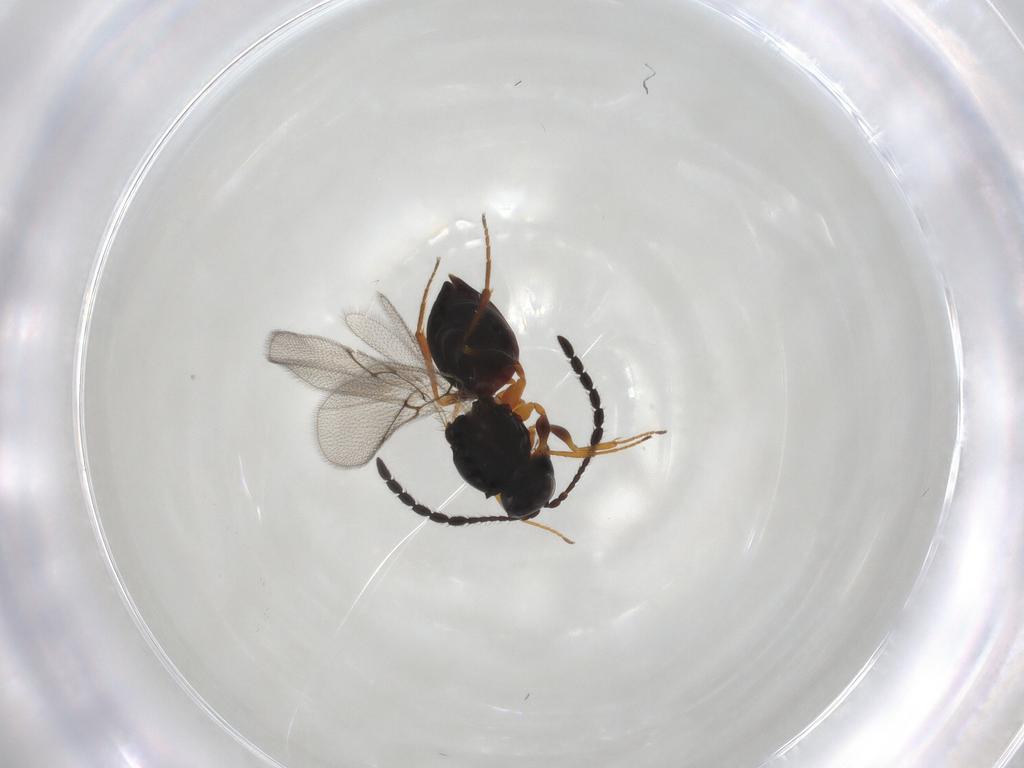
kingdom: Animalia
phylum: Arthropoda
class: Insecta
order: Hymenoptera
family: Figitidae
